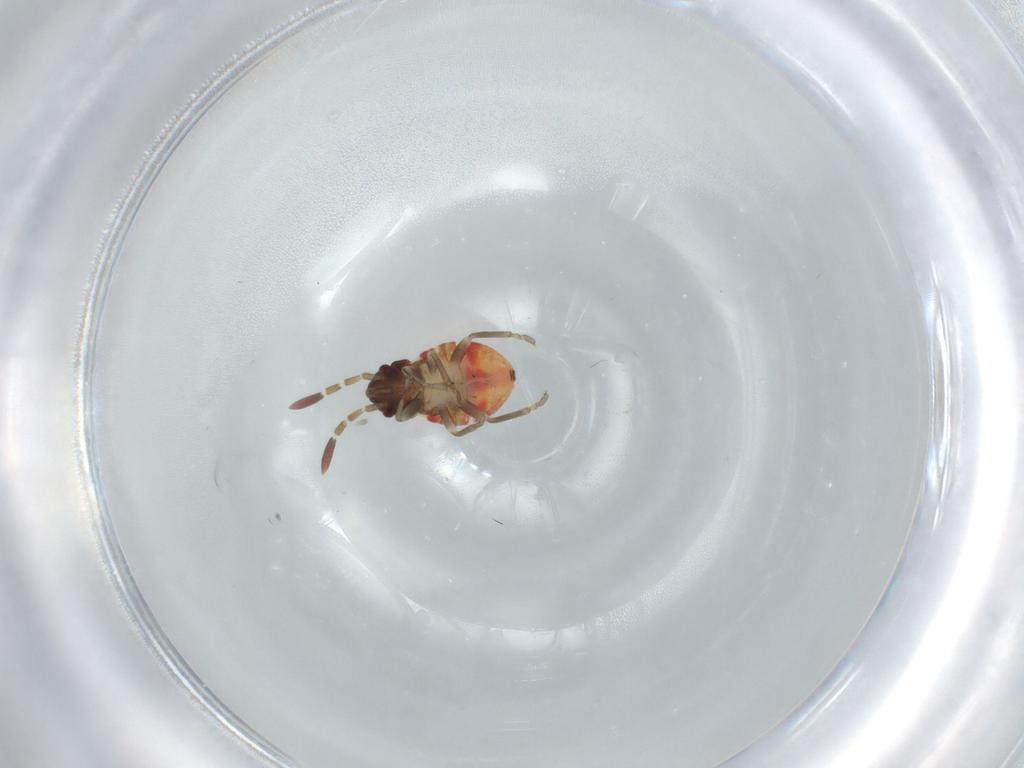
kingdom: Animalia
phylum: Arthropoda
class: Insecta
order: Hemiptera
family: Rhyparochromidae
